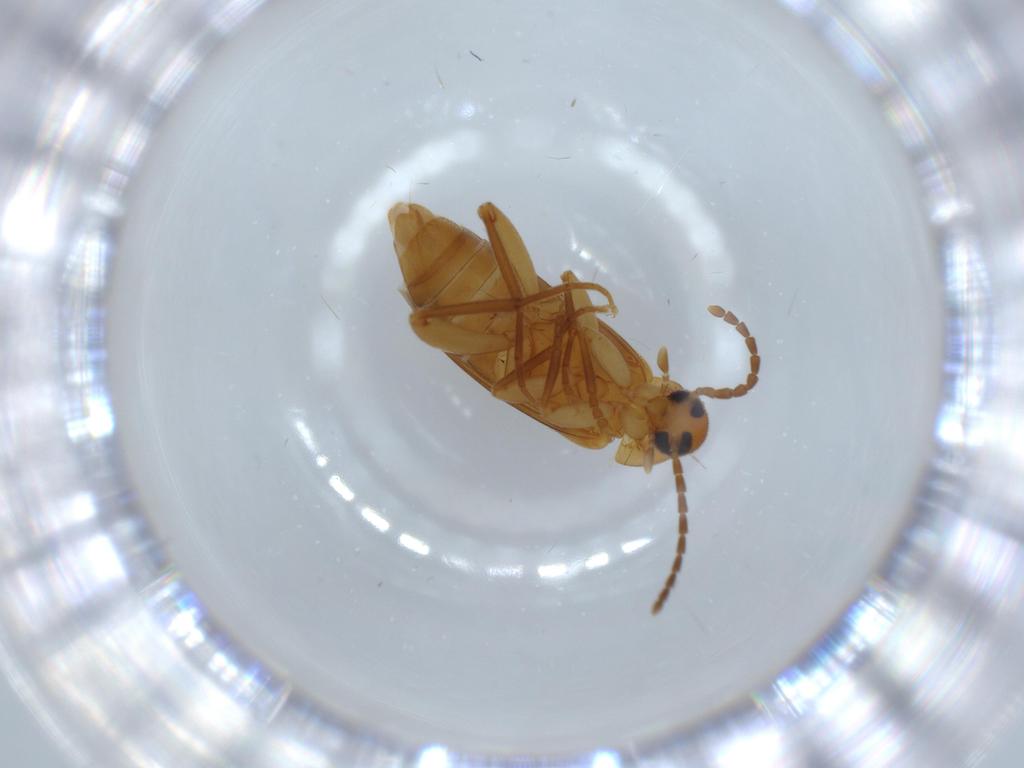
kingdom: Animalia
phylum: Arthropoda
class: Insecta
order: Coleoptera
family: Scraptiidae
